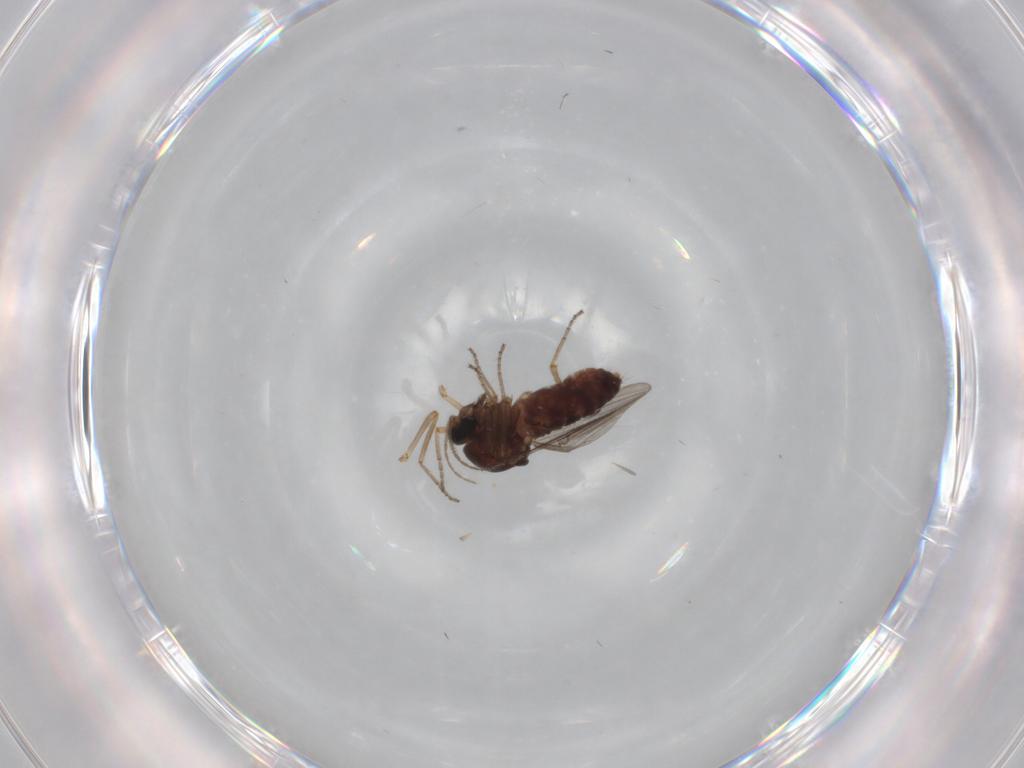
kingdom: Animalia
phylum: Arthropoda
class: Insecta
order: Diptera
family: Ceratopogonidae
